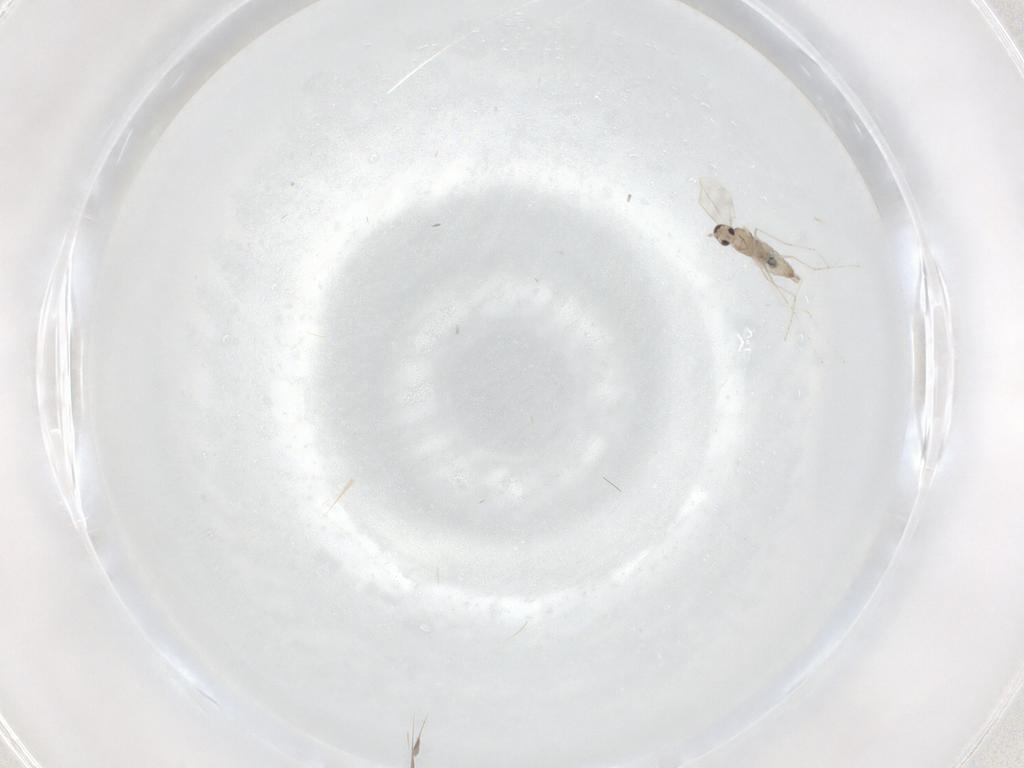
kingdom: Animalia
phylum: Arthropoda
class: Insecta
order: Diptera
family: Cecidomyiidae
